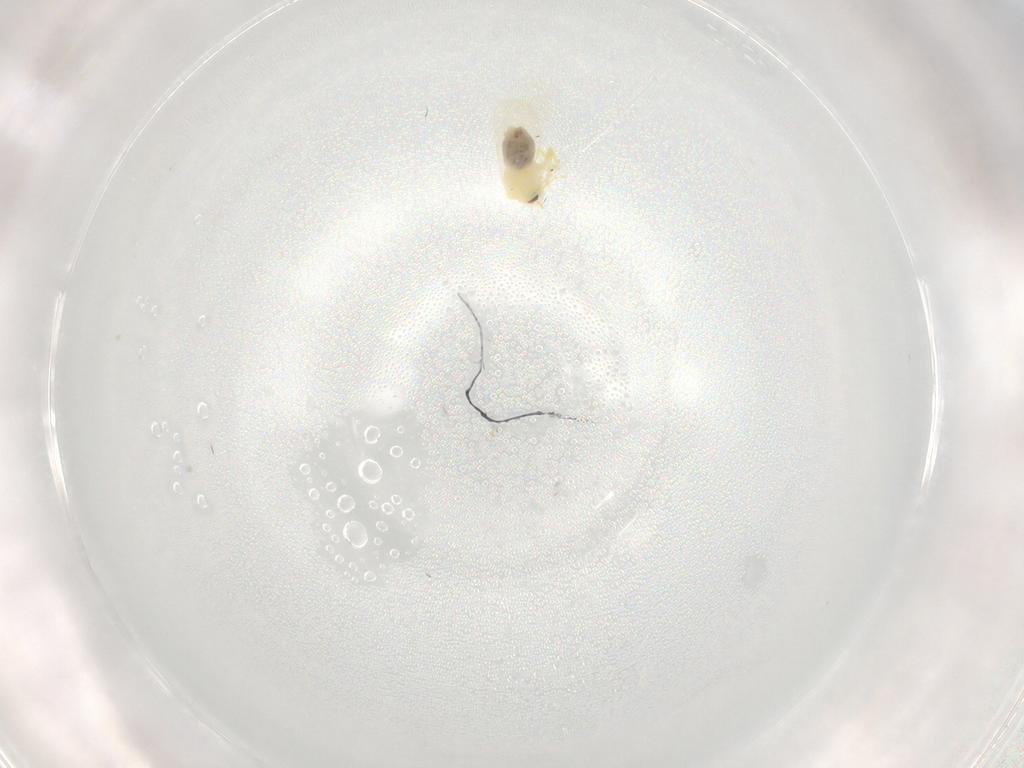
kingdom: Animalia
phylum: Arthropoda
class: Insecta
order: Hemiptera
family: Aleyrodidae
